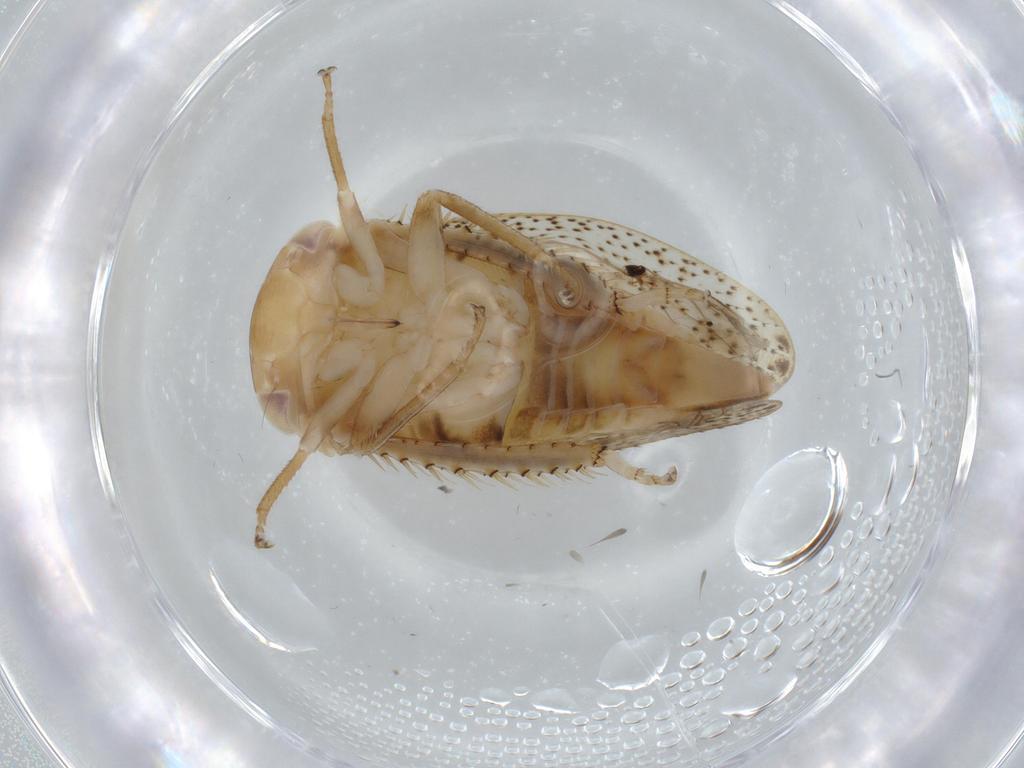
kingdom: Animalia
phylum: Arthropoda
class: Insecta
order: Hemiptera
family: Cicadellidae
